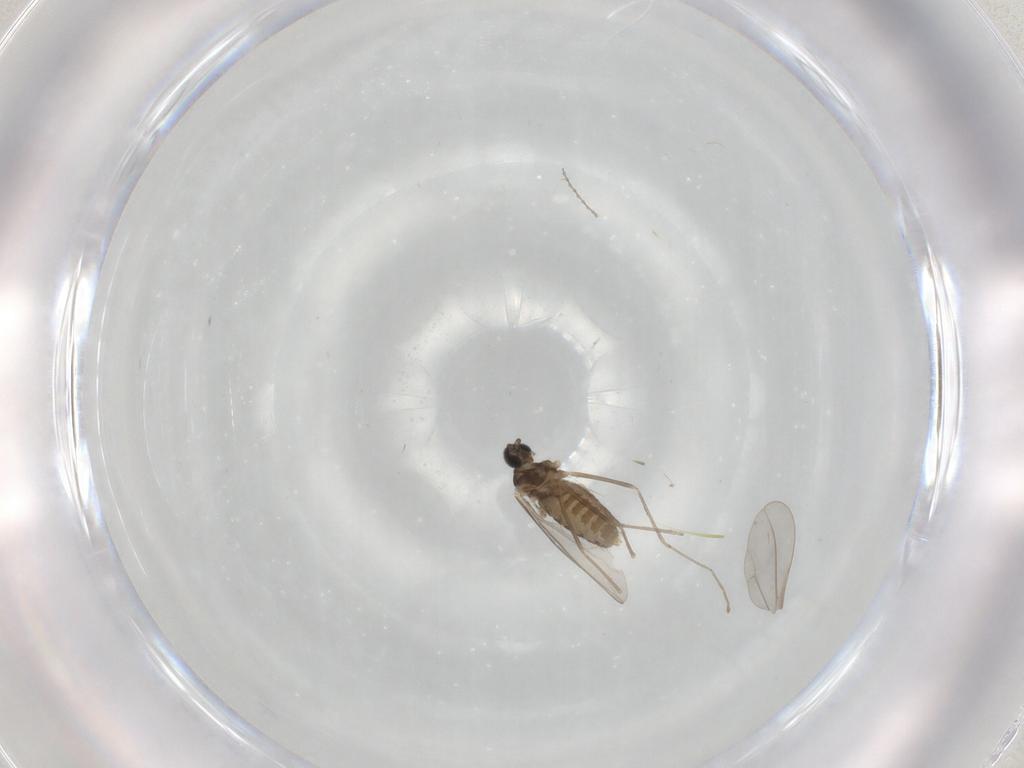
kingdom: Animalia
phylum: Arthropoda
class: Insecta
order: Diptera
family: Cecidomyiidae
